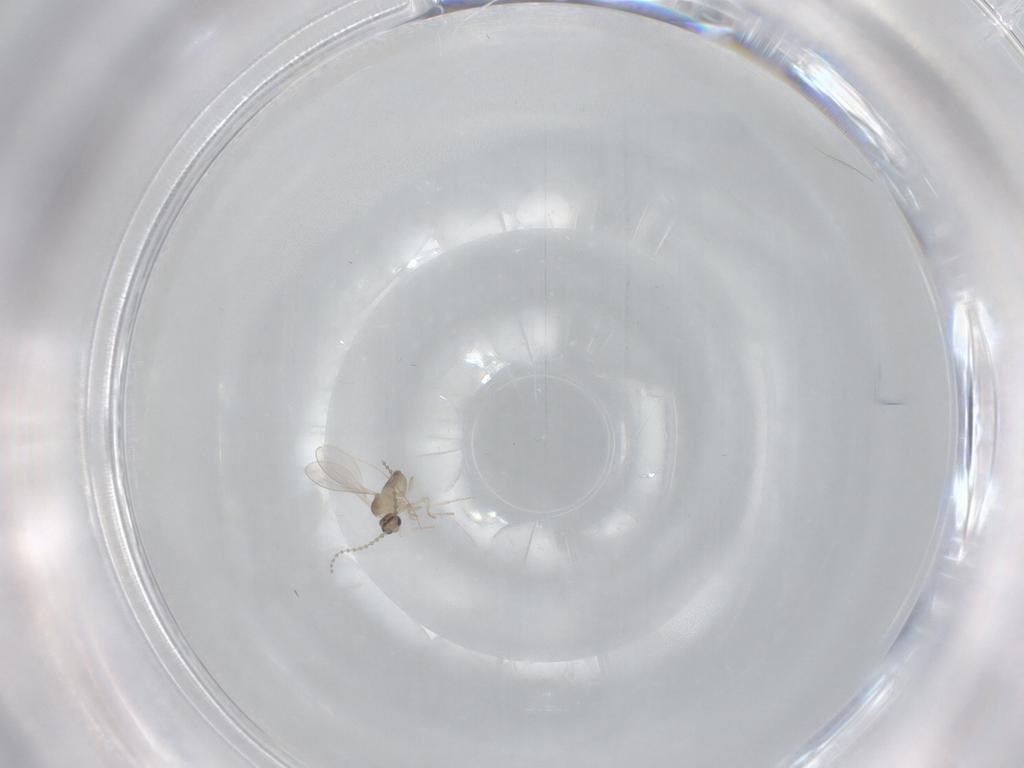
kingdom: Animalia
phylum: Arthropoda
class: Insecta
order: Diptera
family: Cecidomyiidae
